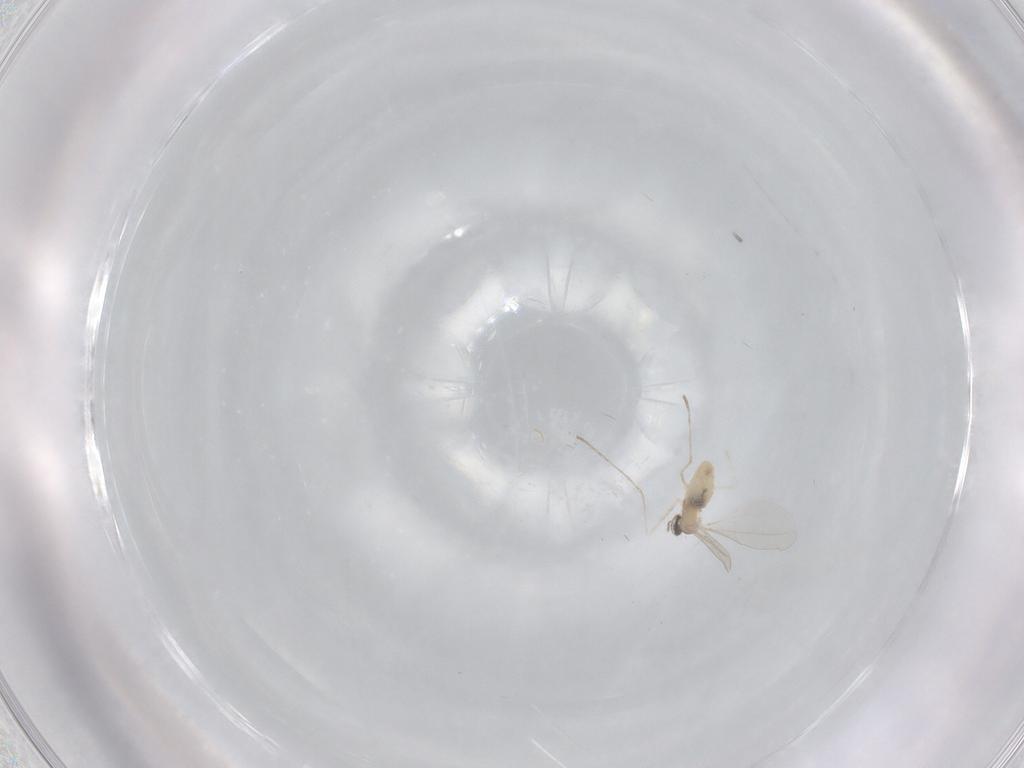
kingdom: Animalia
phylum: Arthropoda
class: Insecta
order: Diptera
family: Chironomidae
